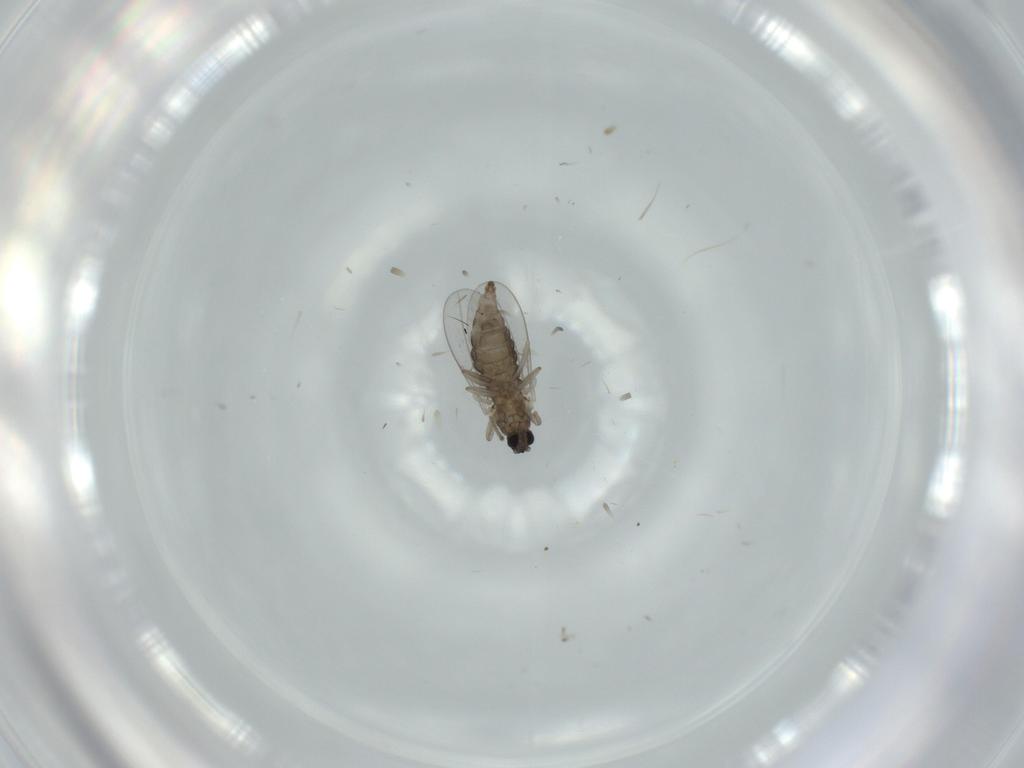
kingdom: Animalia
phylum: Arthropoda
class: Insecta
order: Diptera
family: Cecidomyiidae
